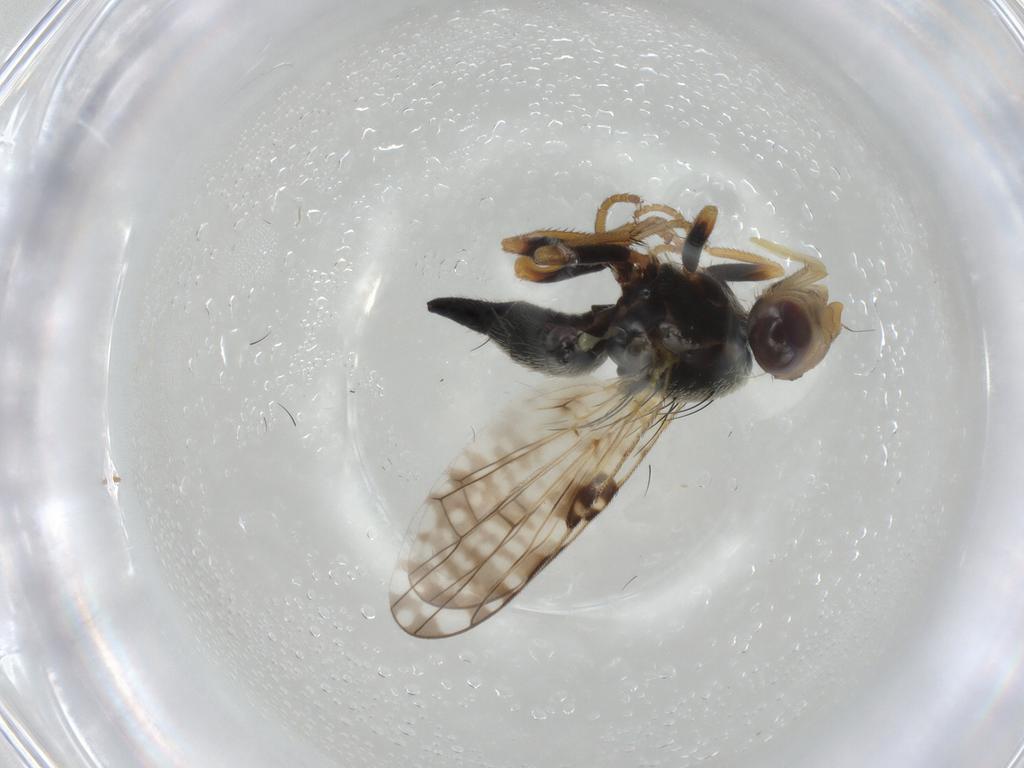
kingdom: Animalia
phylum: Arthropoda
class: Insecta
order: Diptera
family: Tephritidae
